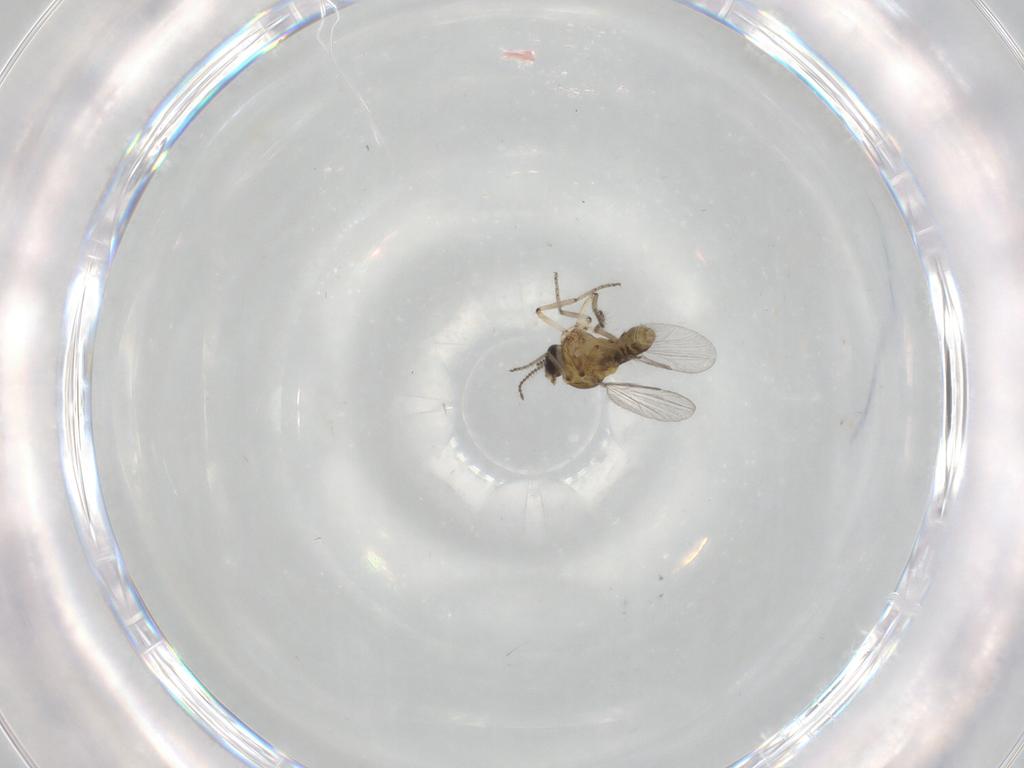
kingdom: Animalia
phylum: Arthropoda
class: Insecta
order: Diptera
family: Ceratopogonidae
